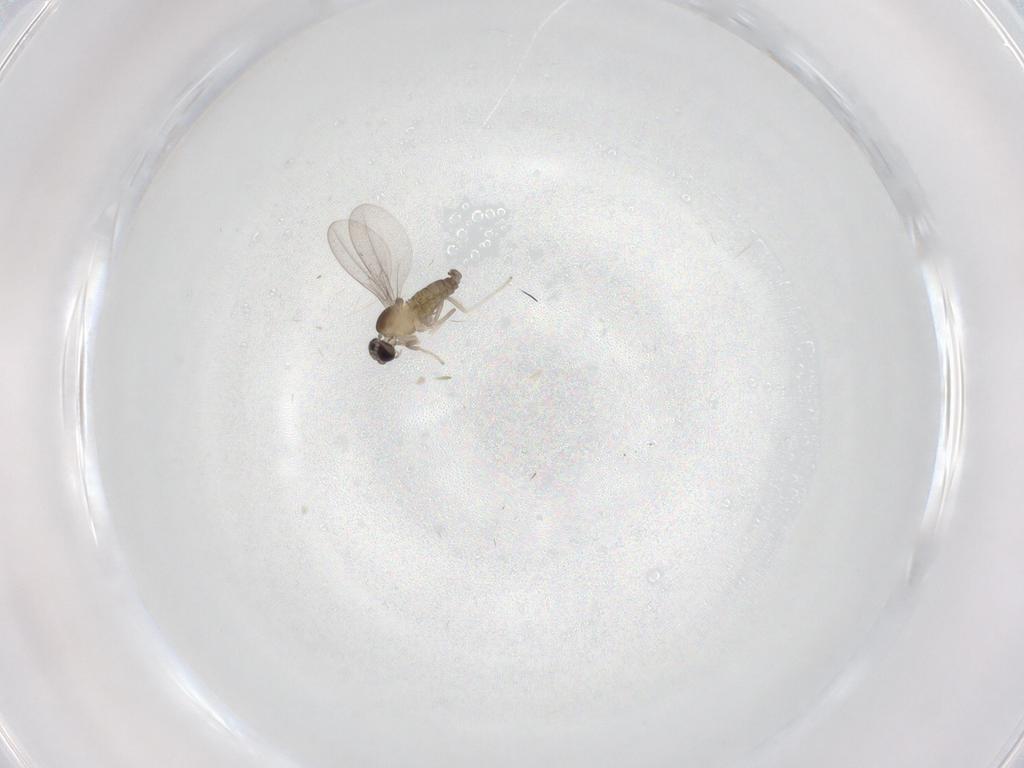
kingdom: Animalia
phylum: Arthropoda
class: Insecta
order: Diptera
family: Cecidomyiidae
